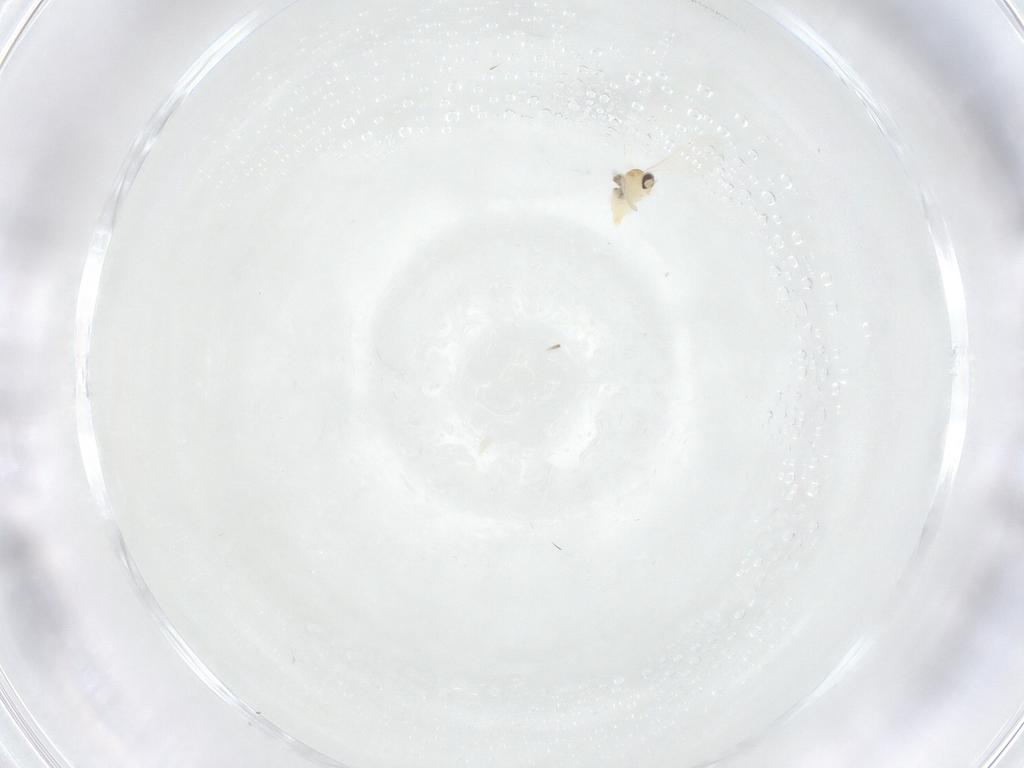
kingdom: Animalia
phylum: Arthropoda
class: Insecta
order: Diptera
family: Cecidomyiidae
